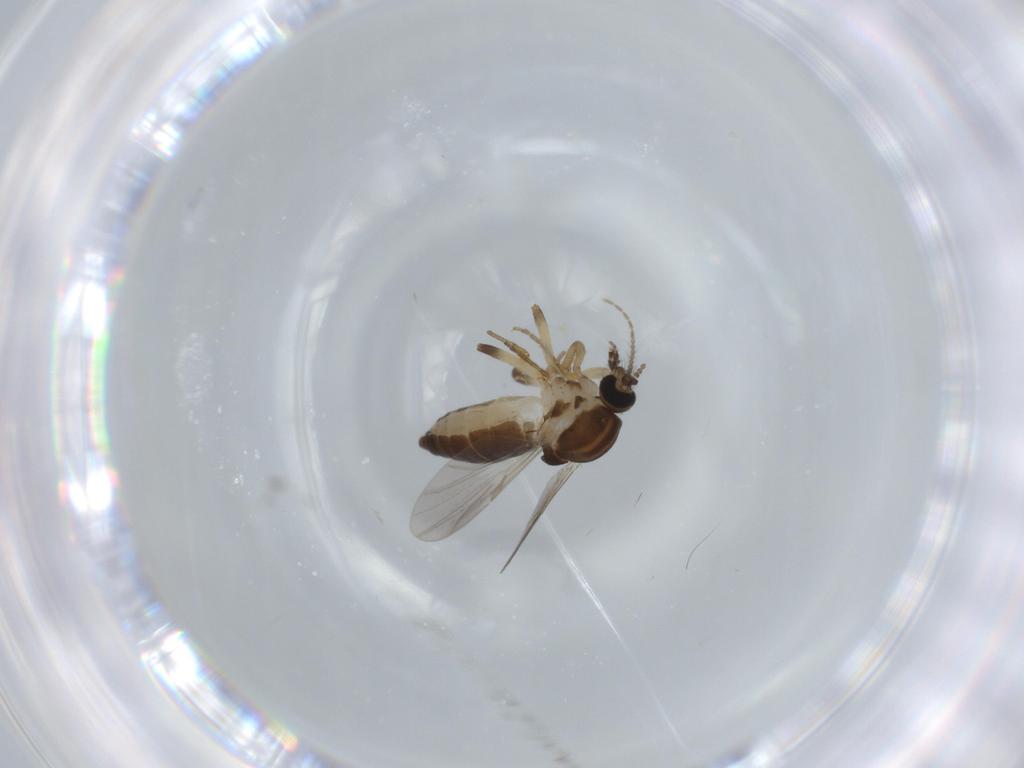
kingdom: Animalia
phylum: Arthropoda
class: Insecta
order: Diptera
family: Ceratopogonidae
